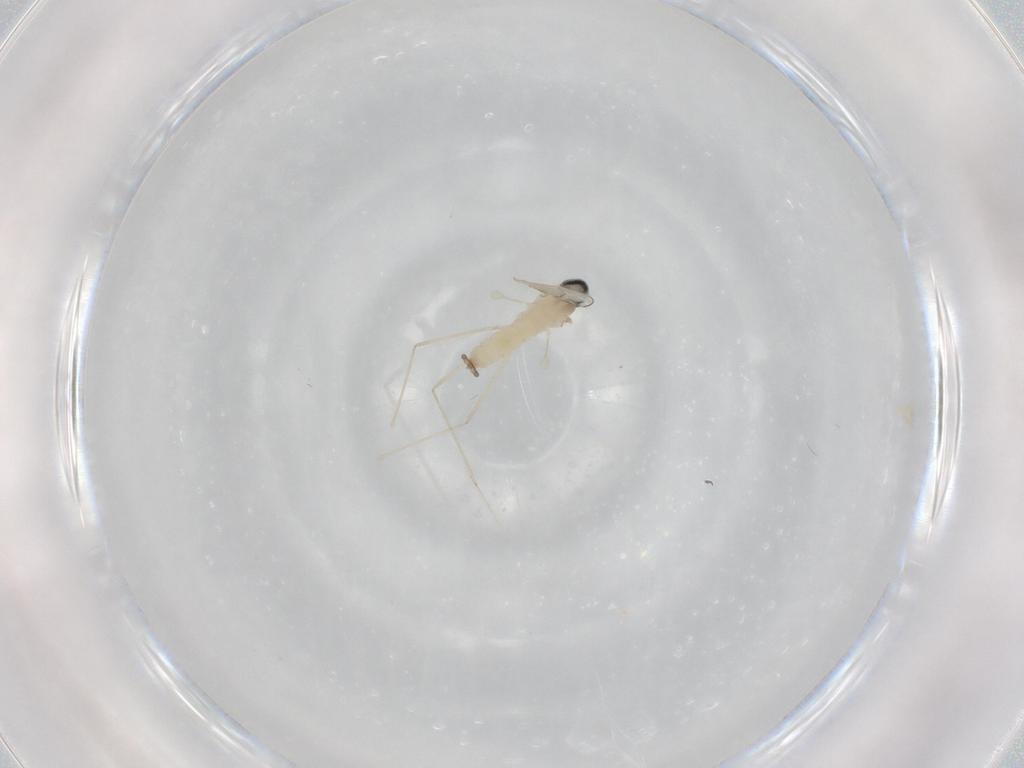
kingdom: Animalia
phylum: Arthropoda
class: Insecta
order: Diptera
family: Cecidomyiidae
